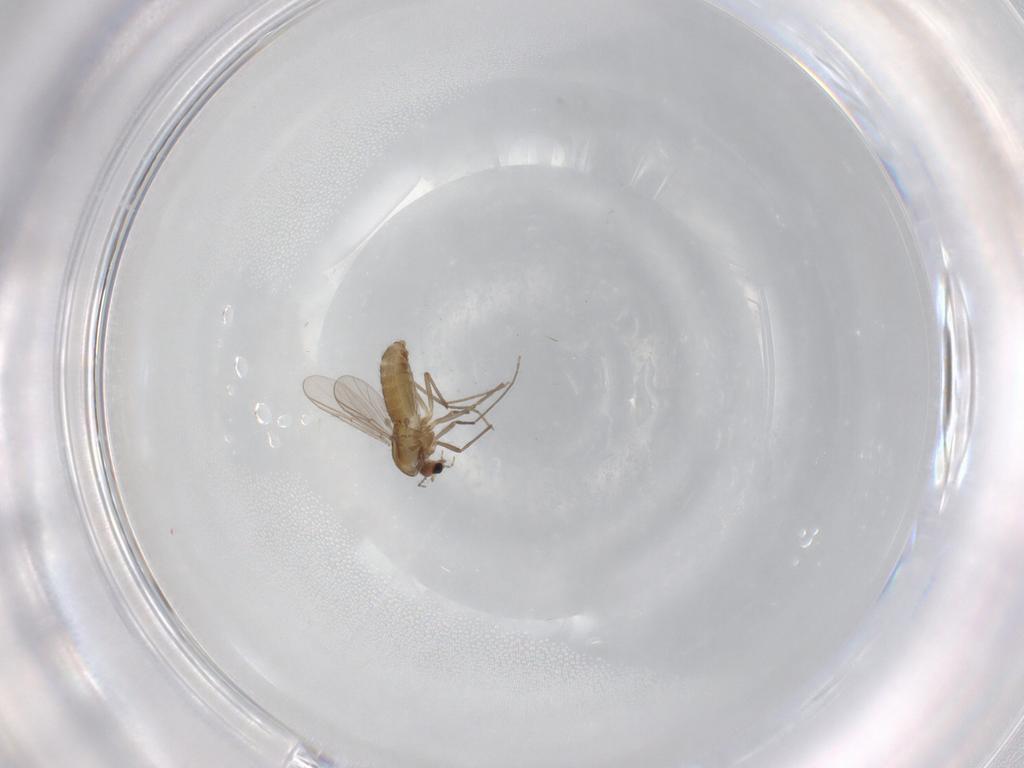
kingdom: Animalia
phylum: Arthropoda
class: Insecta
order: Diptera
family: Chironomidae
